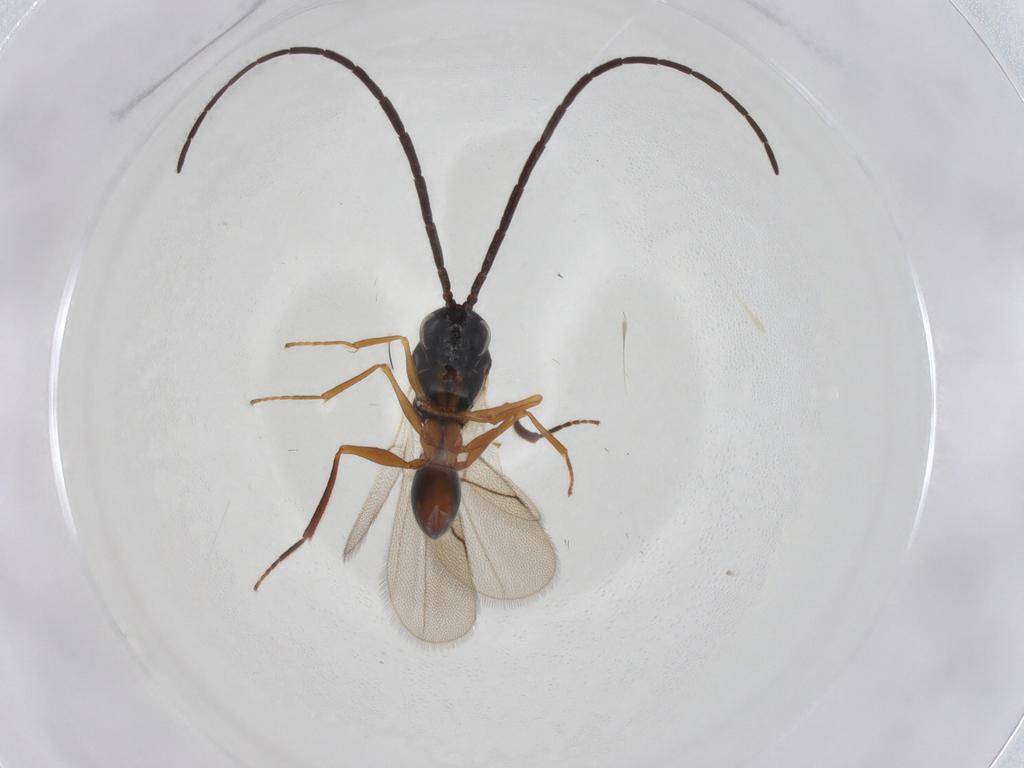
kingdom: Animalia
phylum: Arthropoda
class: Insecta
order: Hymenoptera
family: Figitidae
